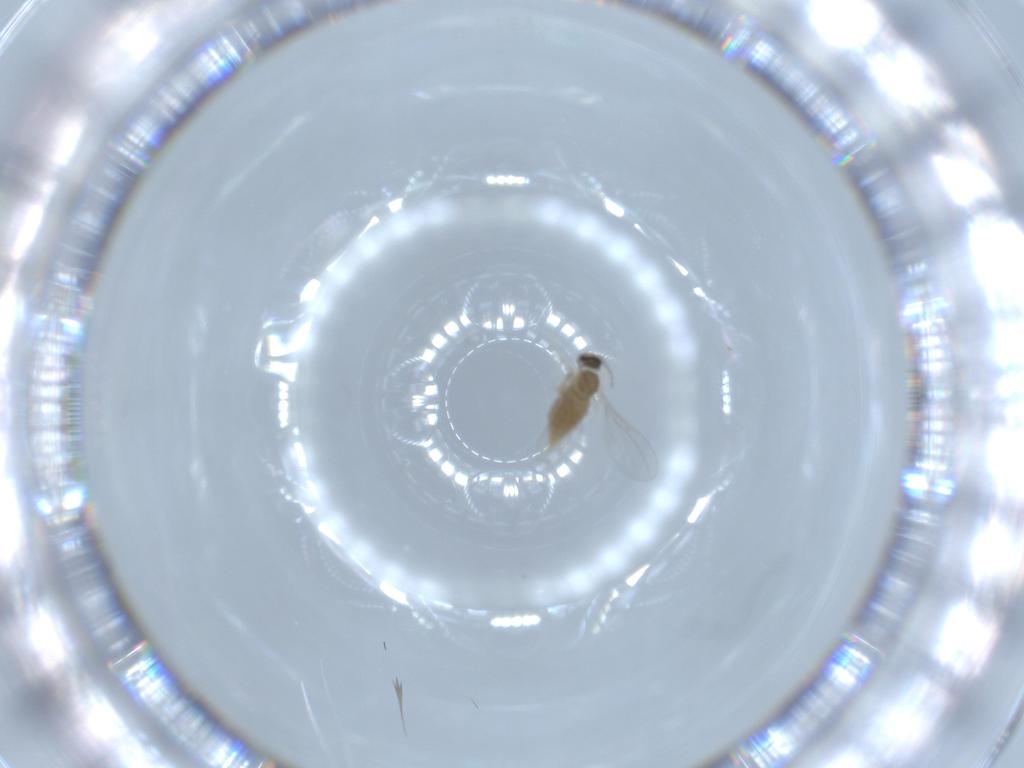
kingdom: Animalia
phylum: Arthropoda
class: Insecta
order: Diptera
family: Cecidomyiidae
